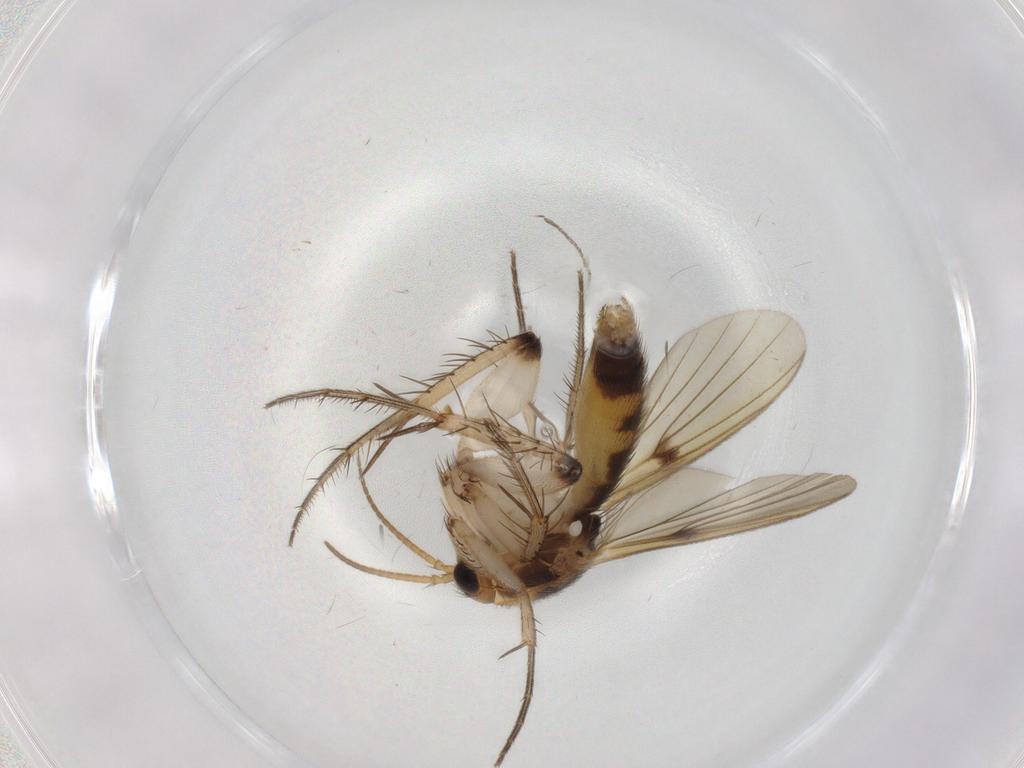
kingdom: Animalia
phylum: Arthropoda
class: Insecta
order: Diptera
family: Mycetophilidae
